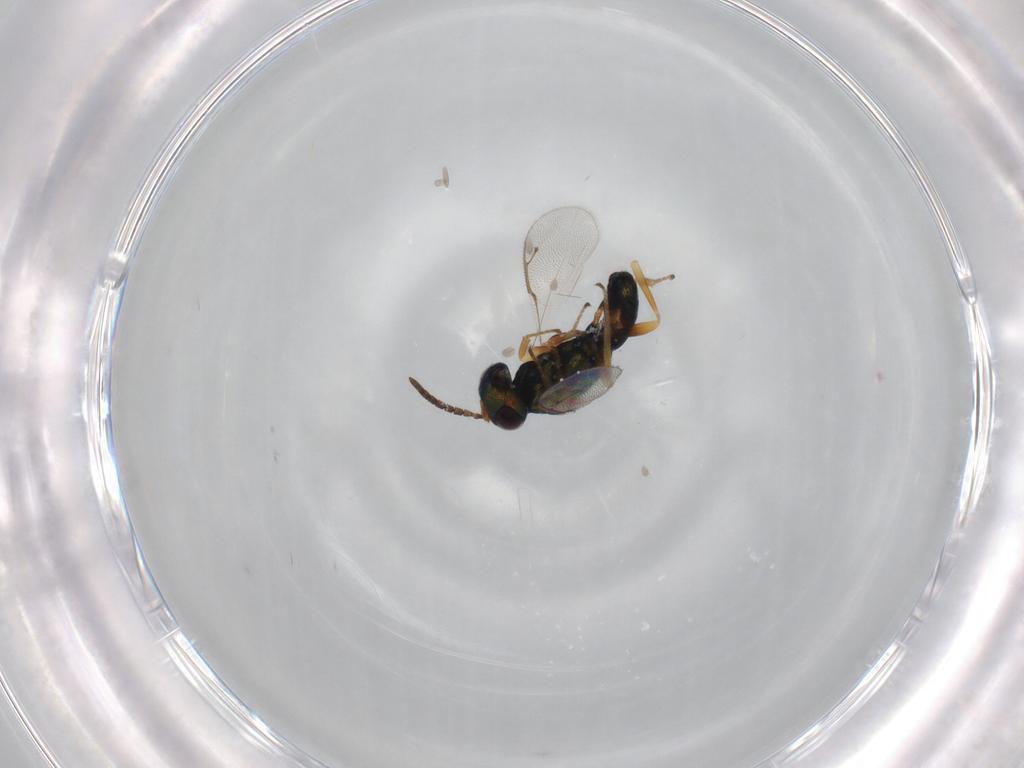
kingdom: Animalia
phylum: Arthropoda
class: Insecta
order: Hymenoptera
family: Pteromalidae
